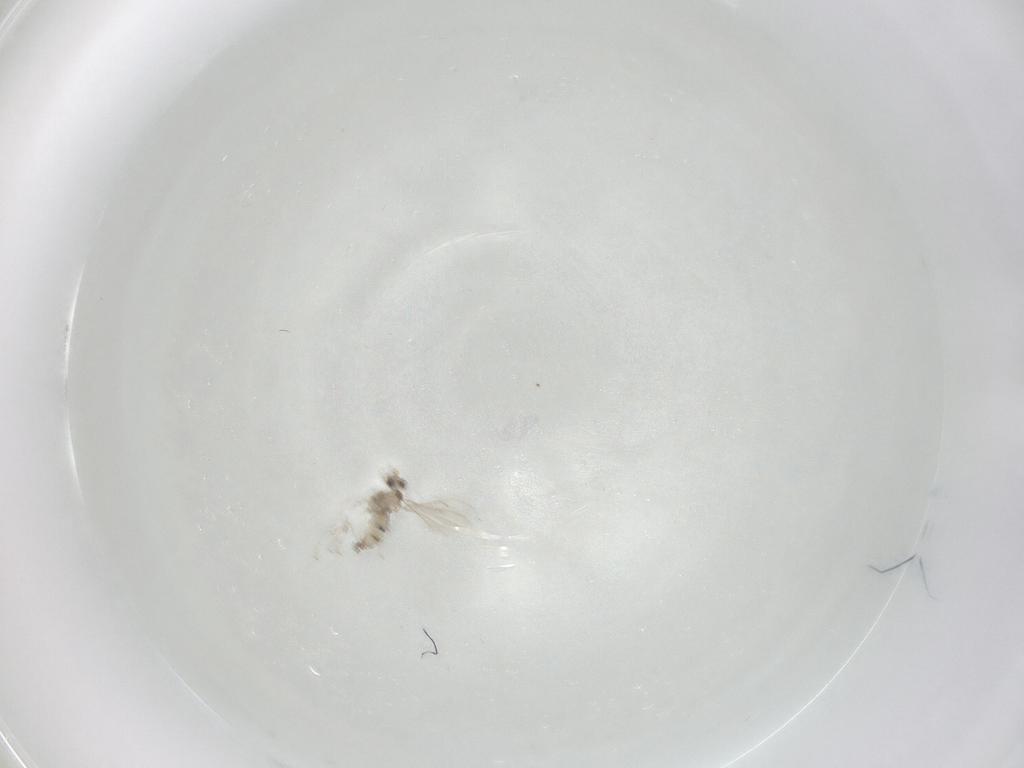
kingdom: Animalia
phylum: Arthropoda
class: Insecta
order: Diptera
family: Cecidomyiidae
